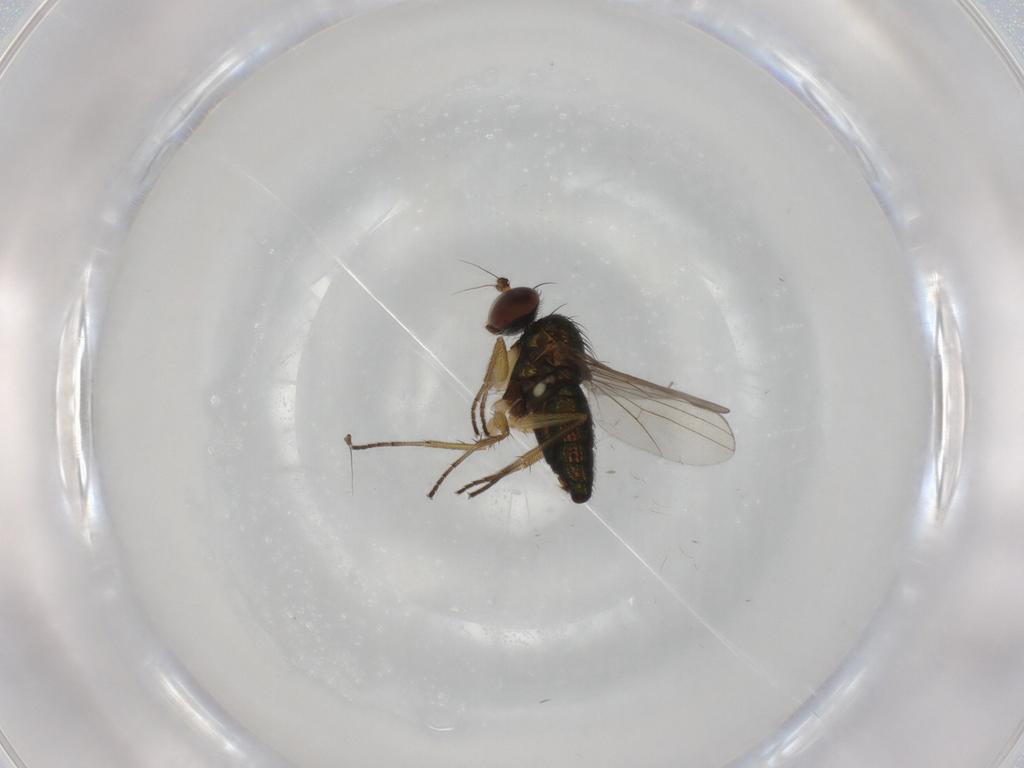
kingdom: Animalia
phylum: Arthropoda
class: Insecta
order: Diptera
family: Dolichopodidae
